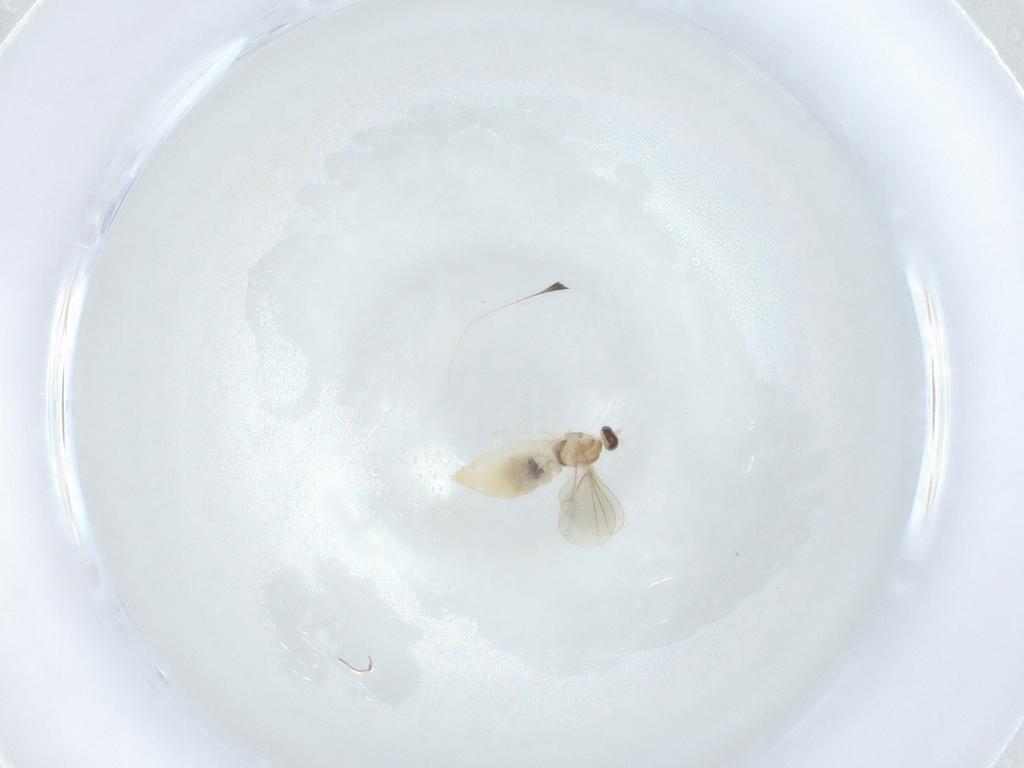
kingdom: Animalia
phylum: Arthropoda
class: Insecta
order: Diptera
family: Cecidomyiidae
